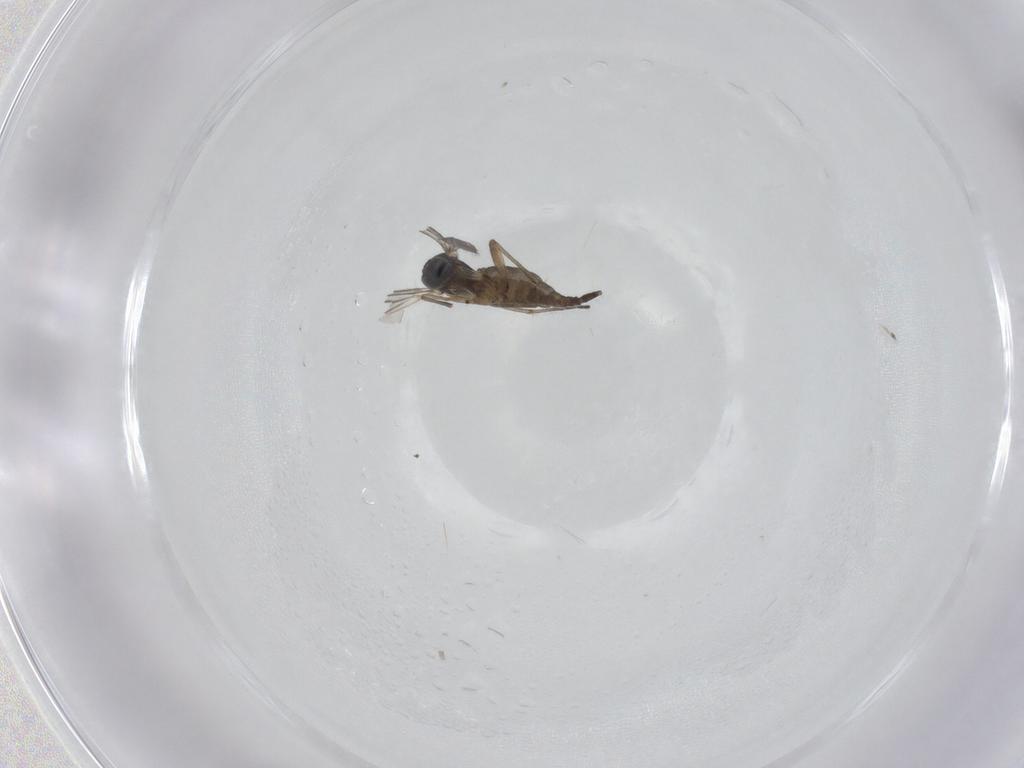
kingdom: Animalia
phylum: Arthropoda
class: Insecta
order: Diptera
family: Sciaridae
